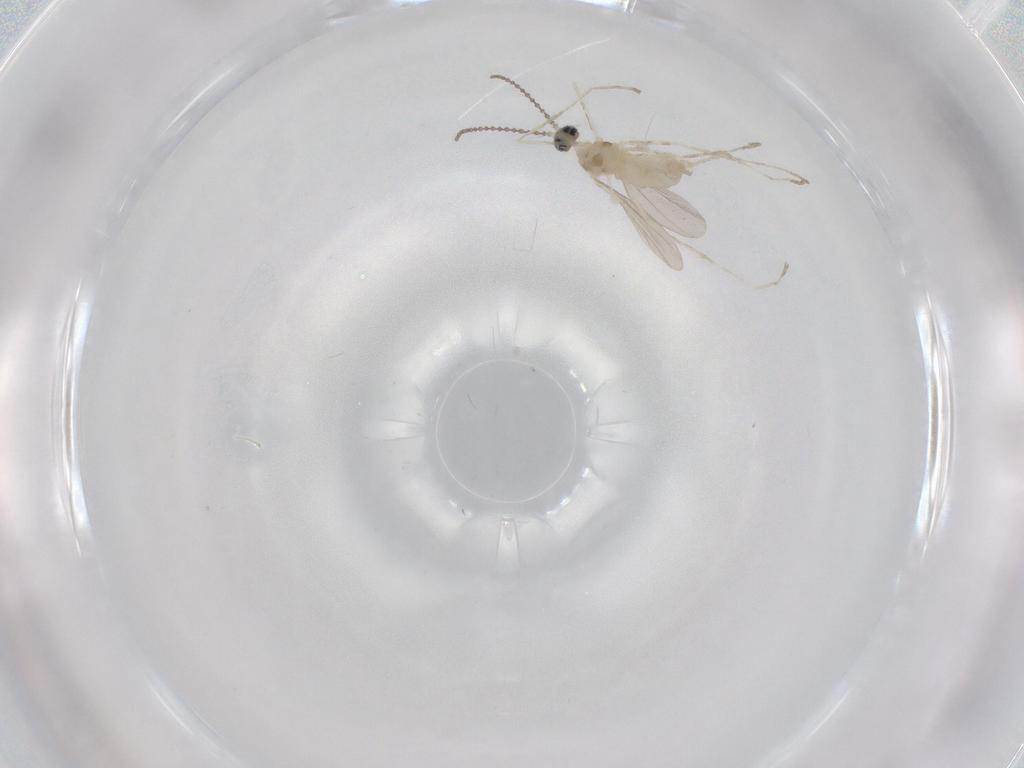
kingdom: Animalia
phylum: Arthropoda
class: Insecta
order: Diptera
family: Cecidomyiidae
